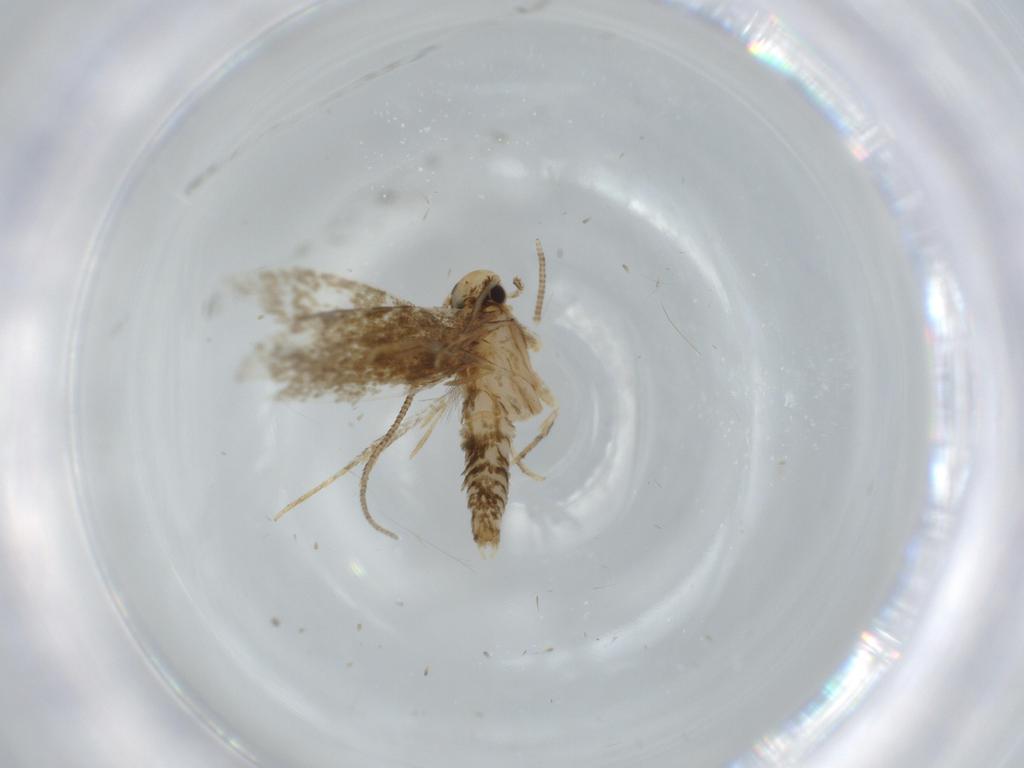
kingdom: Animalia
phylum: Arthropoda
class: Insecta
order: Lepidoptera
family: Tineidae
